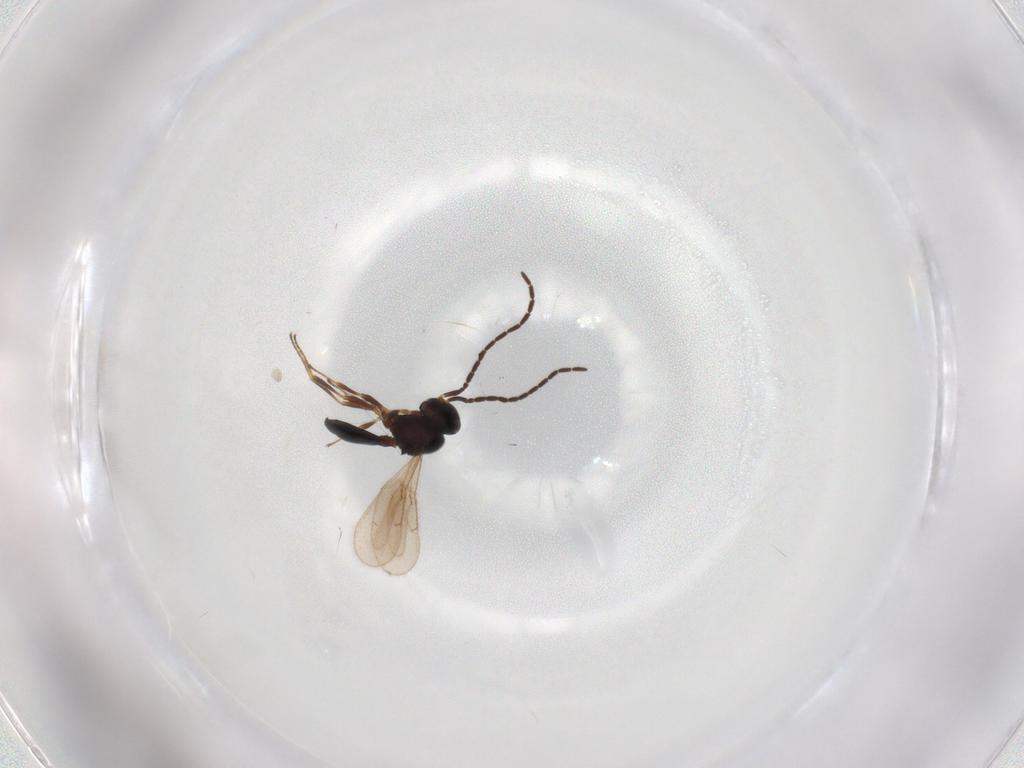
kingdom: Animalia
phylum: Arthropoda
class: Insecta
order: Hymenoptera
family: Scelionidae
